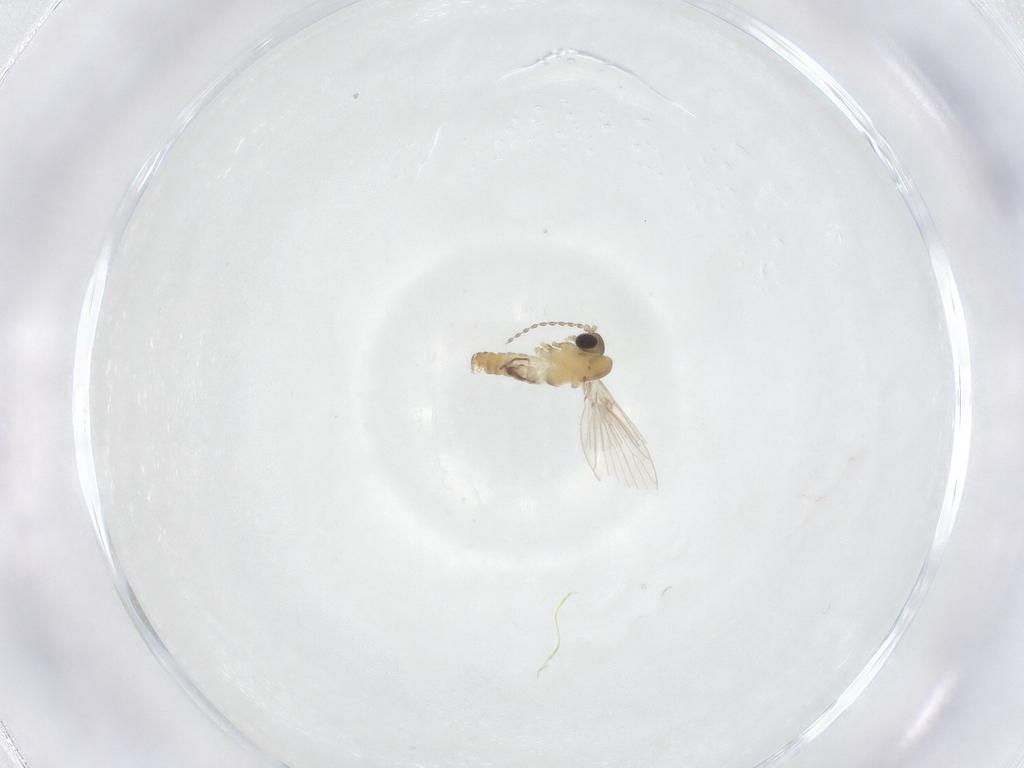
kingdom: Animalia
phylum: Arthropoda
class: Insecta
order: Diptera
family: Psychodidae
